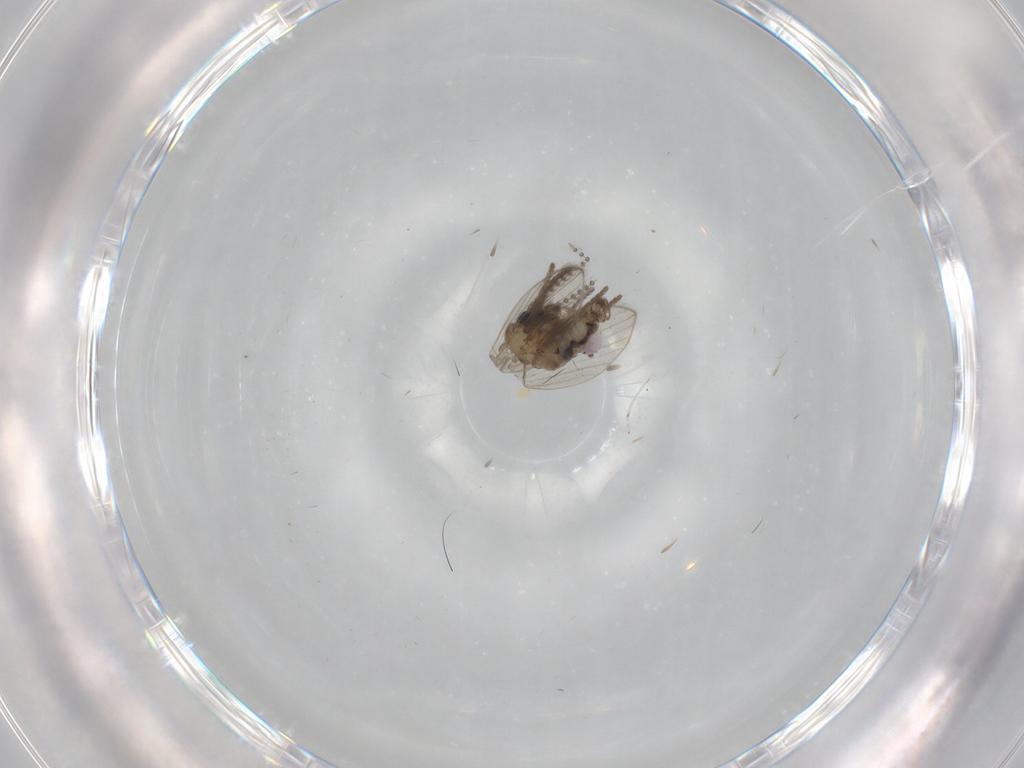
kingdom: Animalia
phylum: Arthropoda
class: Insecta
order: Diptera
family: Psychodidae
